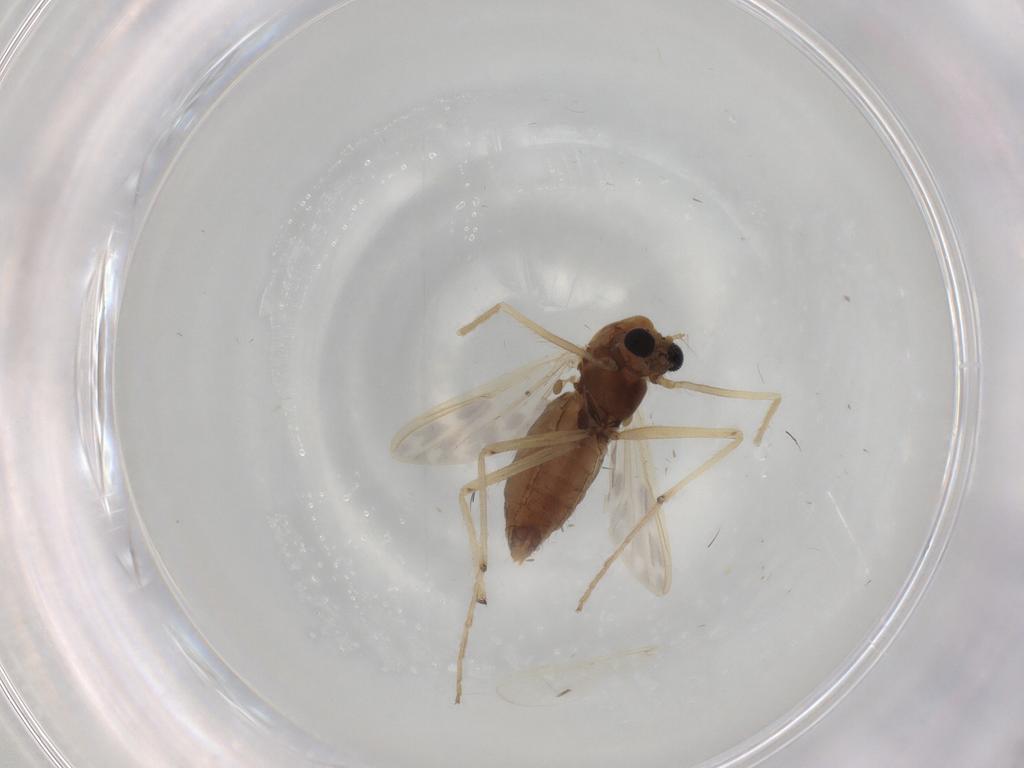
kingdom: Animalia
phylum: Arthropoda
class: Insecta
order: Diptera
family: Chironomidae
